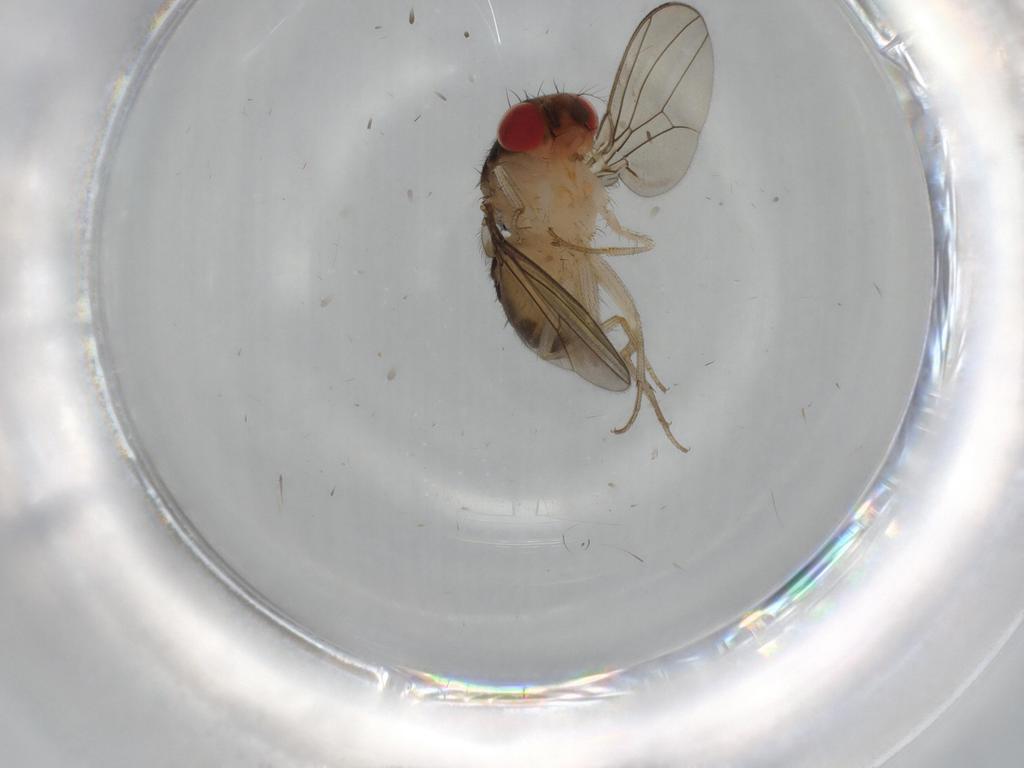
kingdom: Animalia
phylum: Arthropoda
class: Insecta
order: Diptera
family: Drosophilidae
